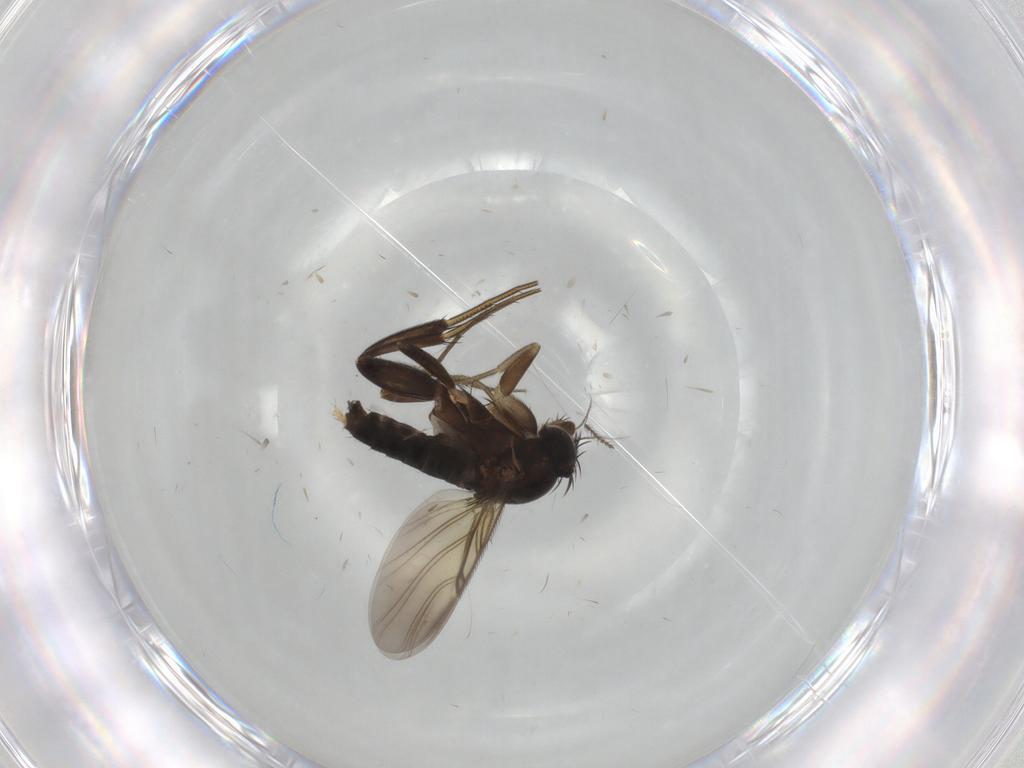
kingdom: Animalia
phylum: Arthropoda
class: Insecta
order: Diptera
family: Phoridae
